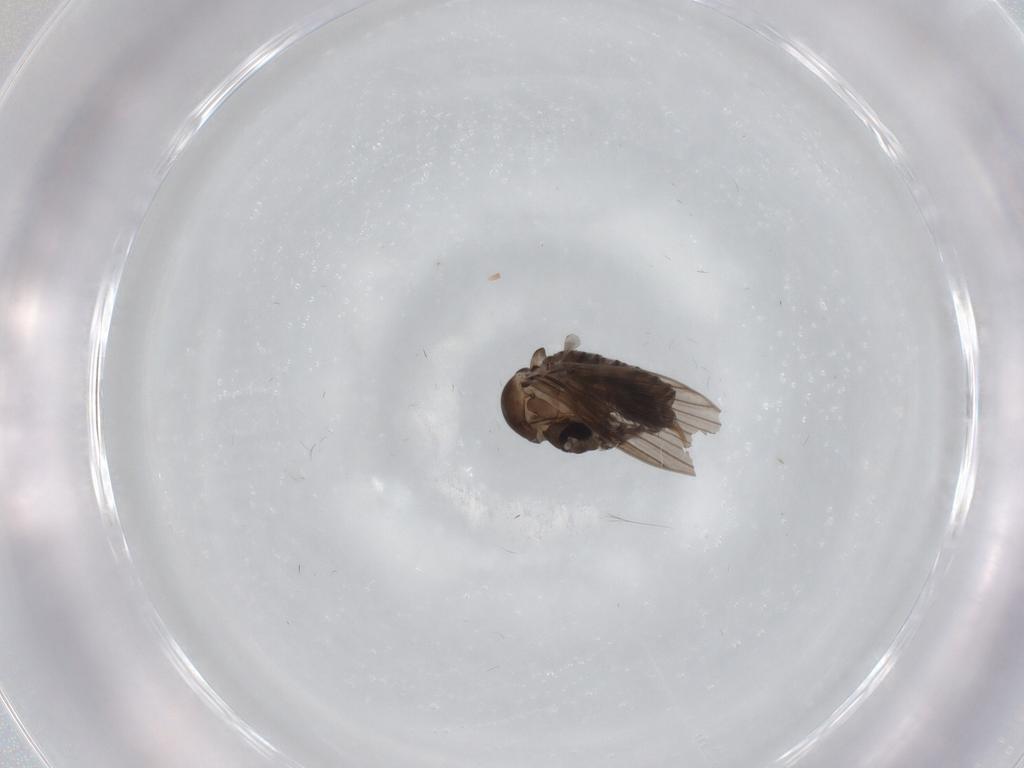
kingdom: Animalia
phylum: Arthropoda
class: Insecta
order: Diptera
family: Psychodidae
